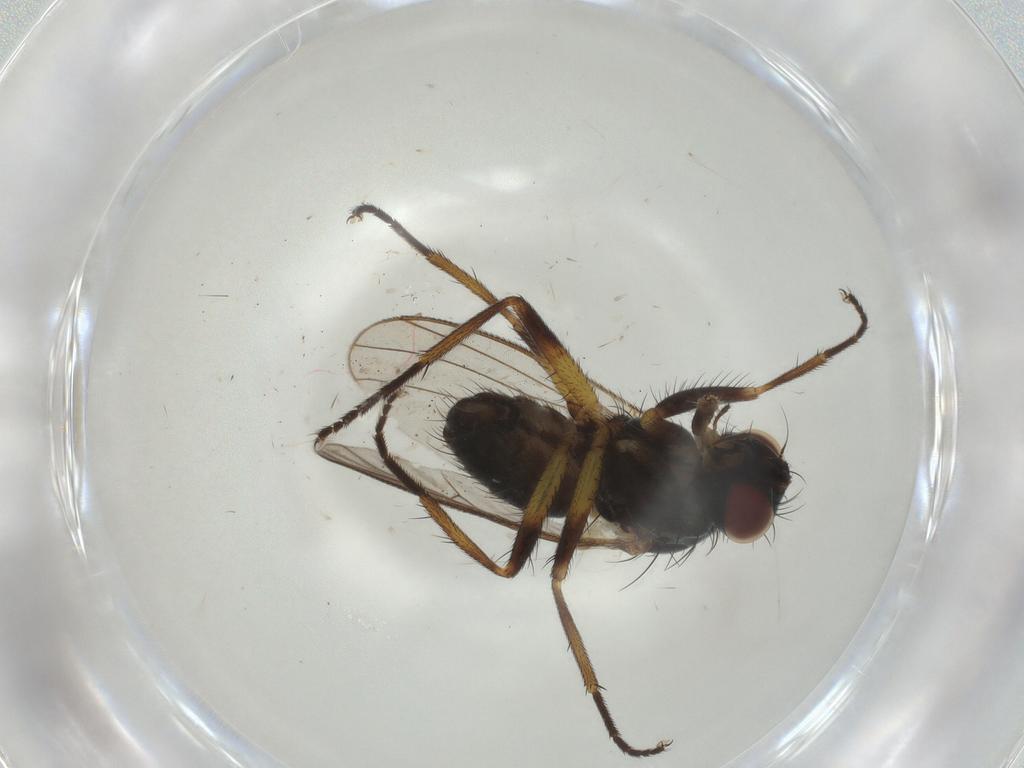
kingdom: Animalia
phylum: Arthropoda
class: Insecta
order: Diptera
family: Muscidae
